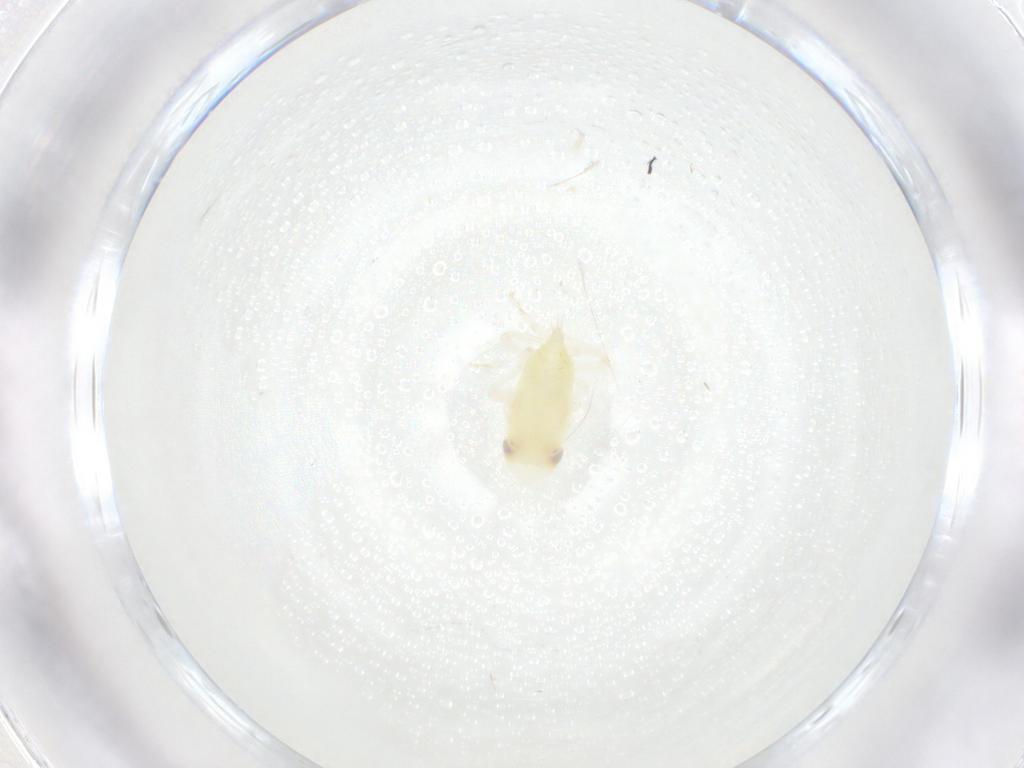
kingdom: Animalia
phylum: Arthropoda
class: Insecta
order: Hemiptera
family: Cicadellidae
